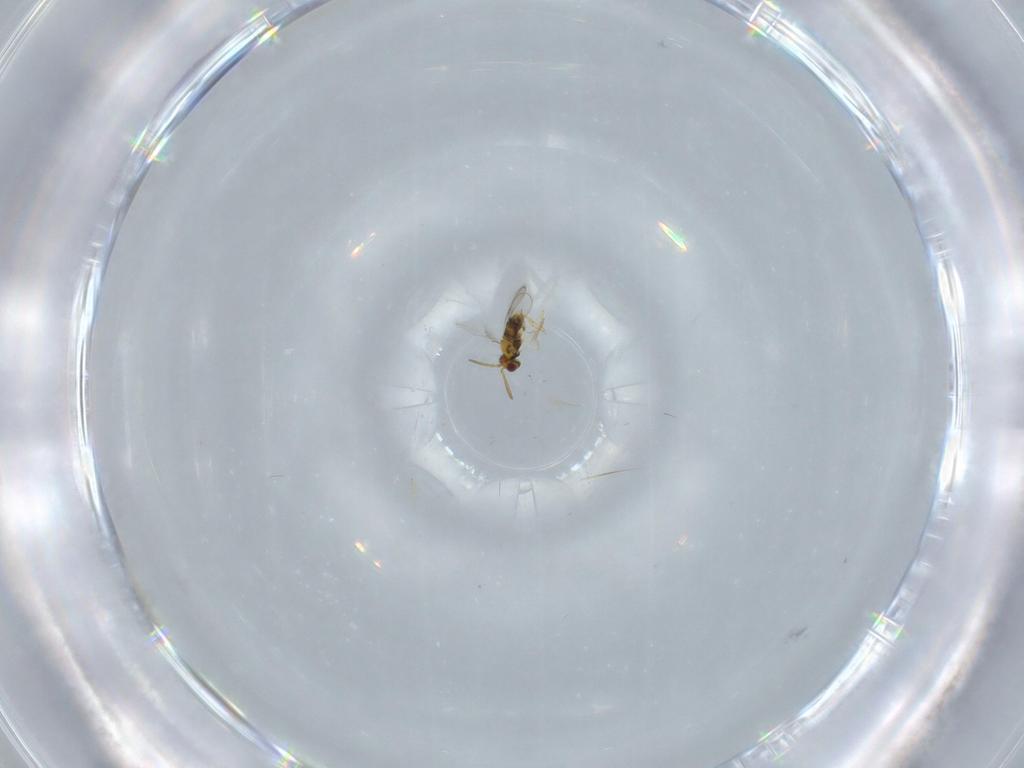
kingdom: Animalia
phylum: Arthropoda
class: Insecta
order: Hymenoptera
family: Aphelinidae
